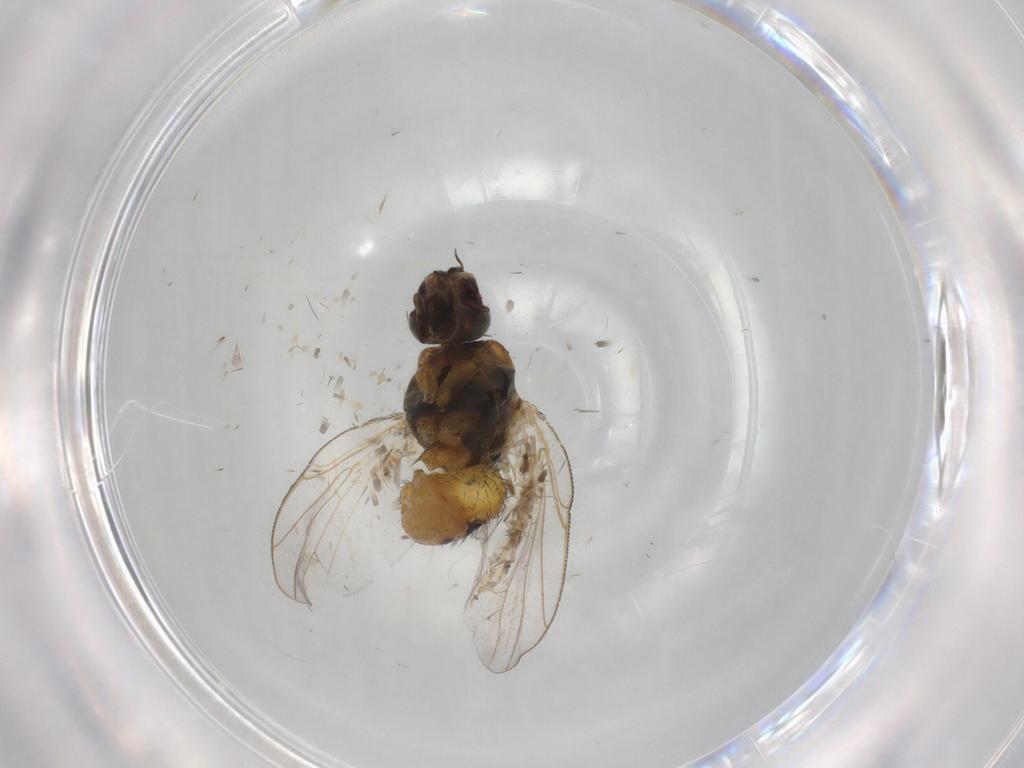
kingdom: Animalia
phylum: Arthropoda
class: Insecta
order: Diptera
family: Muscidae
